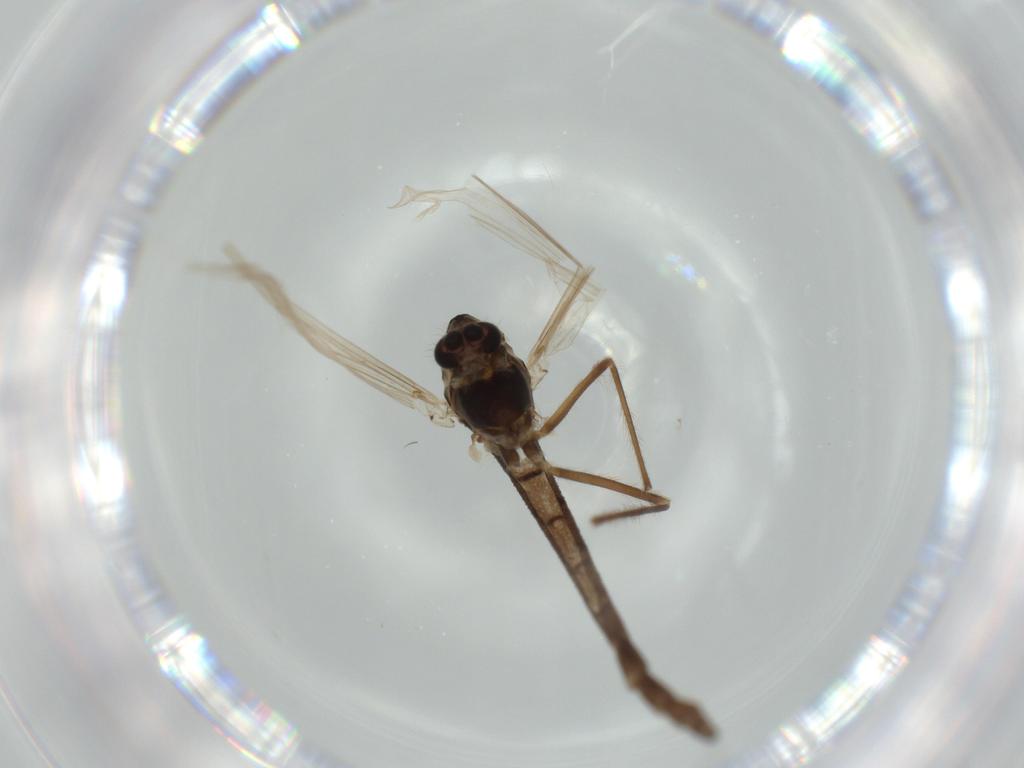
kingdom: Animalia
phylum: Arthropoda
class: Insecta
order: Diptera
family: Chironomidae
